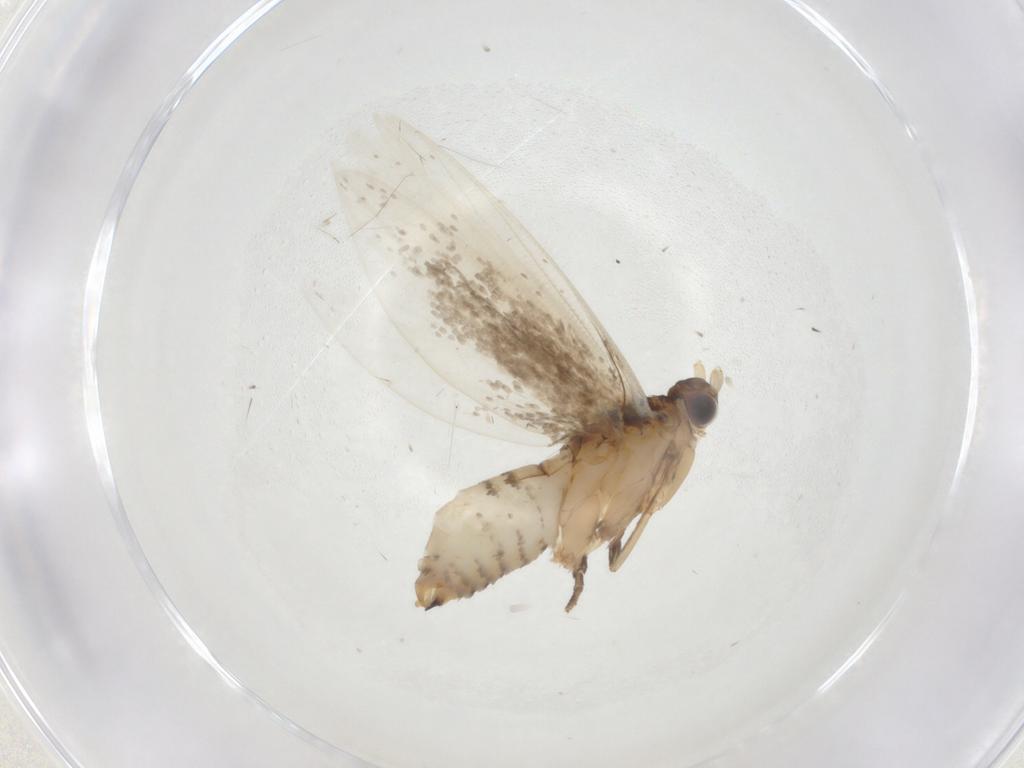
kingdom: Animalia
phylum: Arthropoda
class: Insecta
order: Lepidoptera
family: Tineidae
